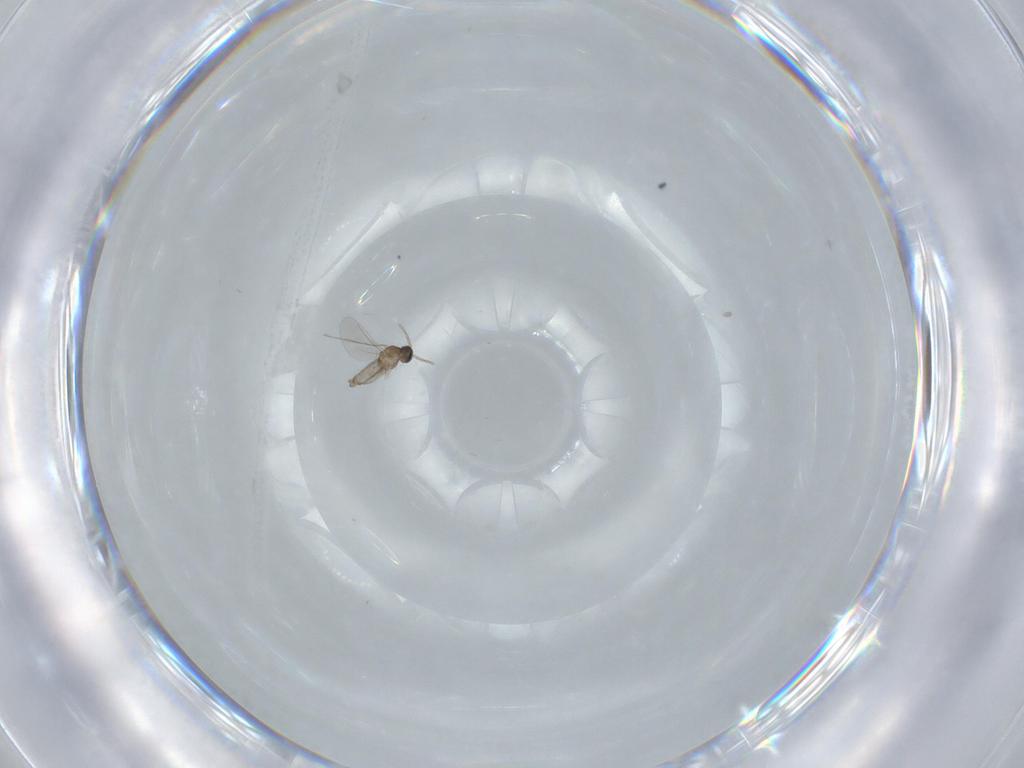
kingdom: Animalia
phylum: Arthropoda
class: Insecta
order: Diptera
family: Cecidomyiidae
